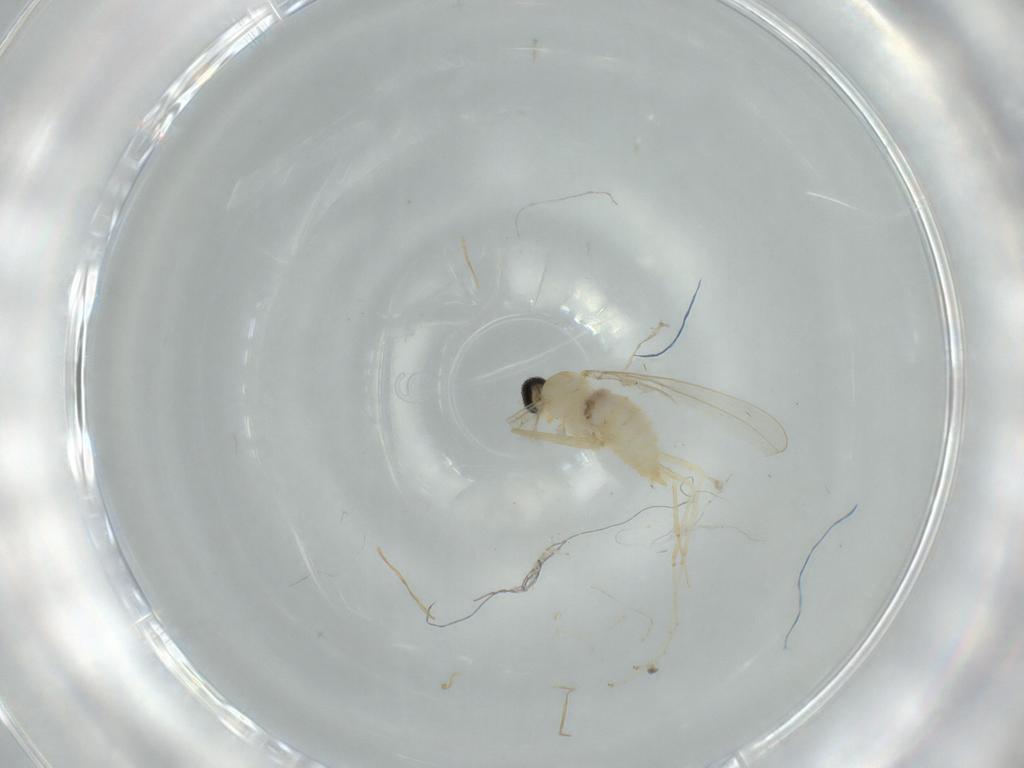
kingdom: Animalia
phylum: Arthropoda
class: Insecta
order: Diptera
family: Cecidomyiidae
